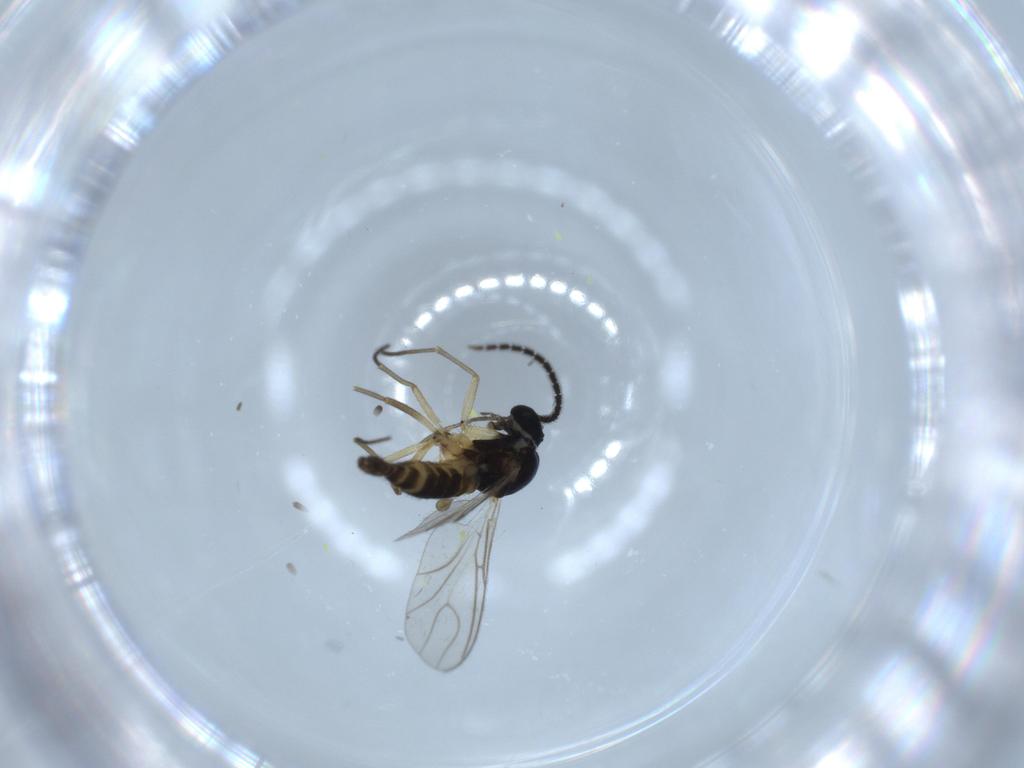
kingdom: Animalia
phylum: Arthropoda
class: Insecta
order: Diptera
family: Sciaridae
